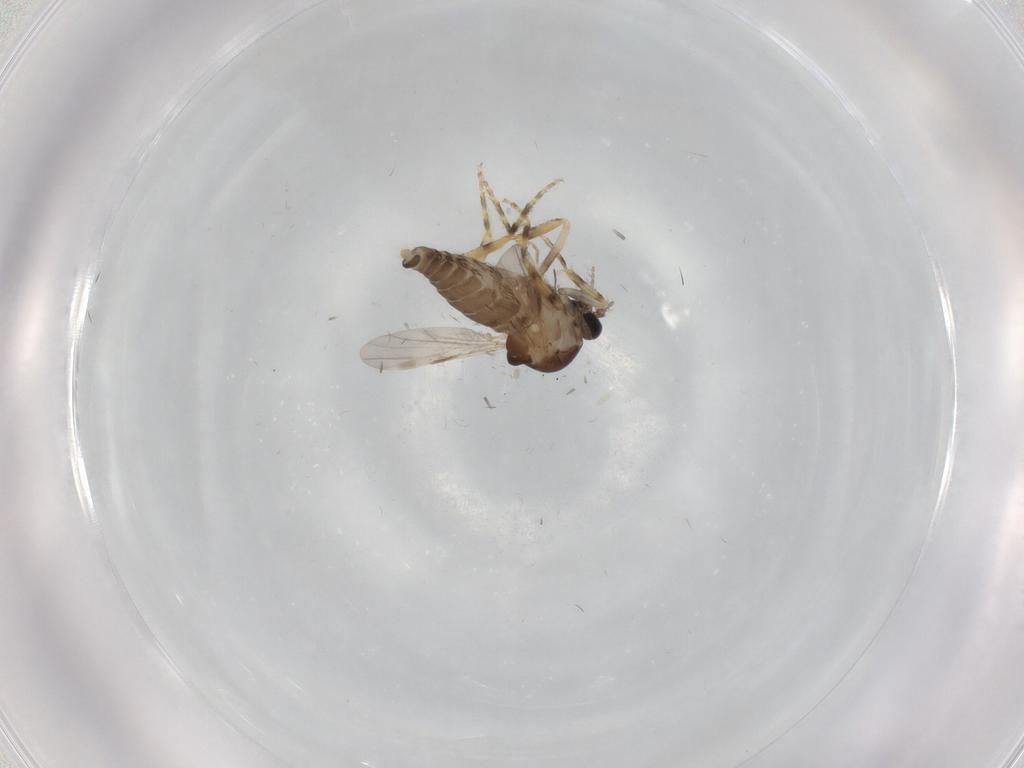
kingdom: Animalia
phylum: Arthropoda
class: Insecta
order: Diptera
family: Ceratopogonidae
